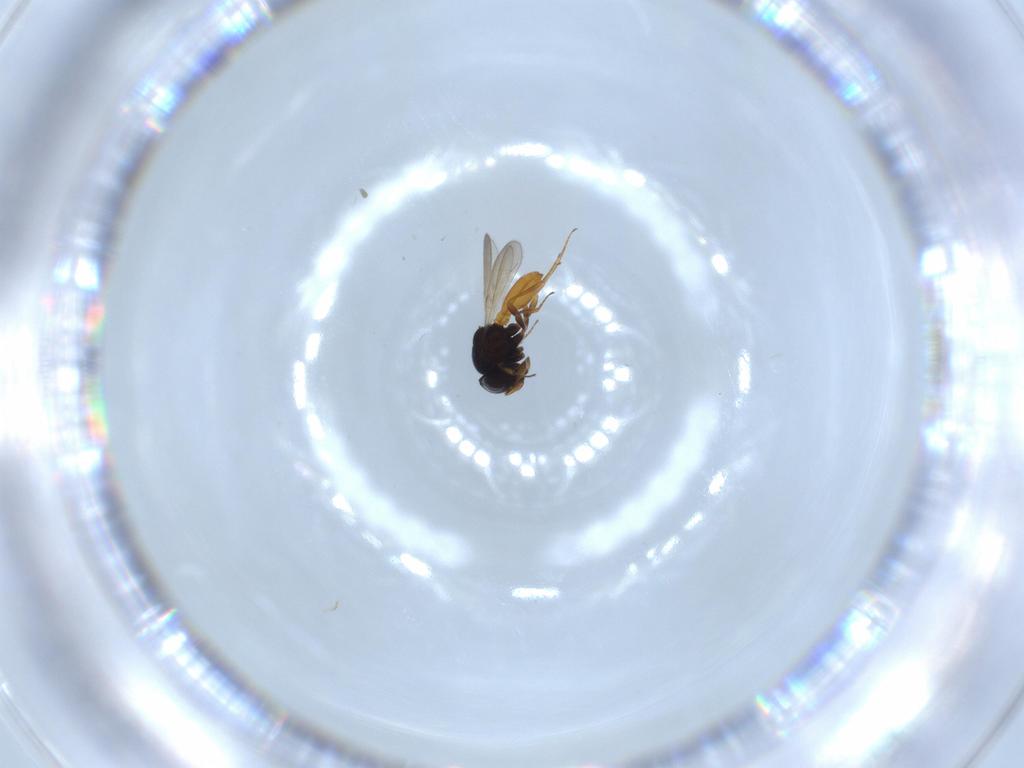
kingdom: Animalia
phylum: Arthropoda
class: Insecta
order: Hymenoptera
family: Scelionidae
